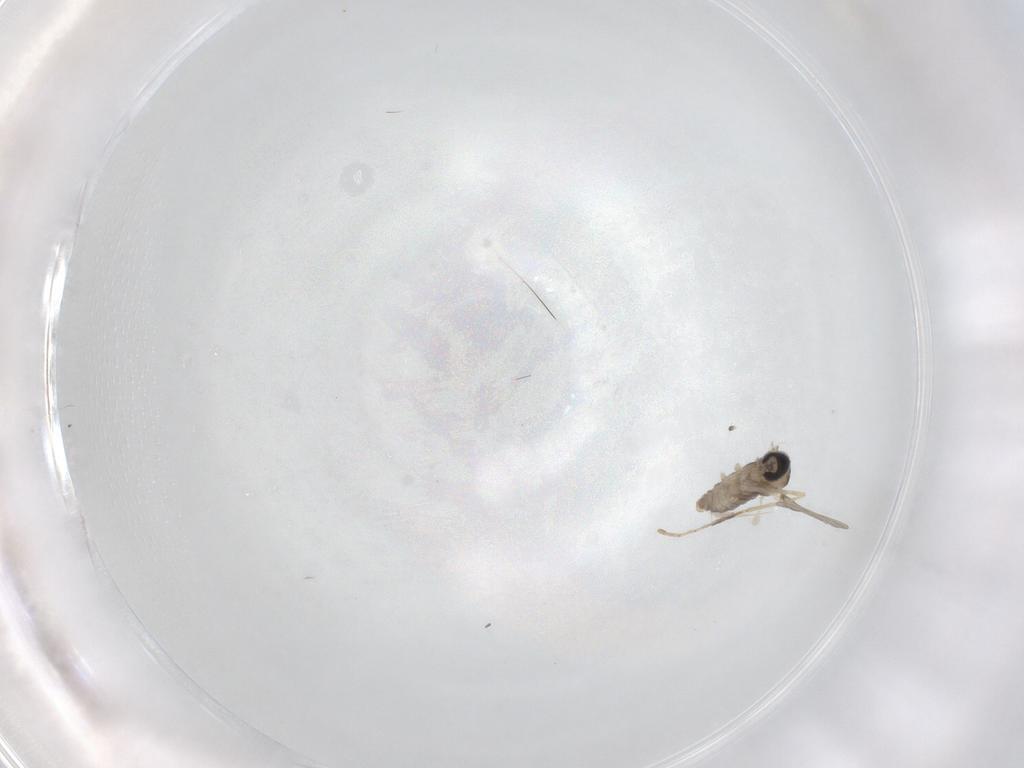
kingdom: Animalia
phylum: Arthropoda
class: Insecta
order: Diptera
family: Cecidomyiidae
